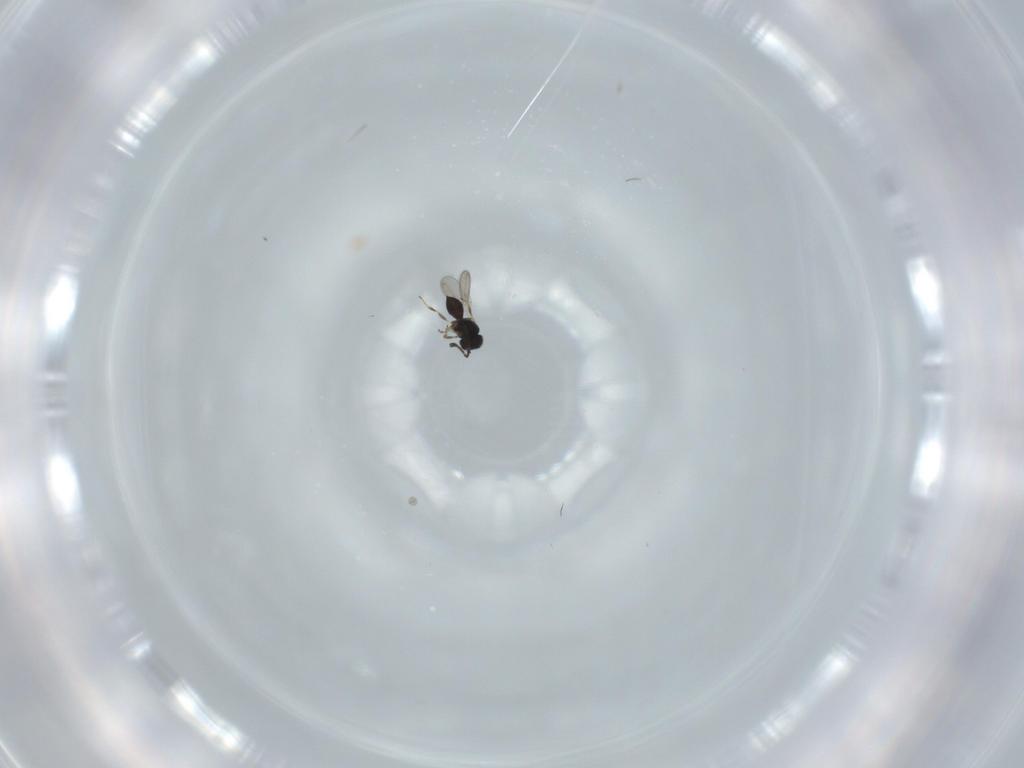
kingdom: Animalia
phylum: Arthropoda
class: Insecta
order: Hymenoptera
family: Scelionidae
